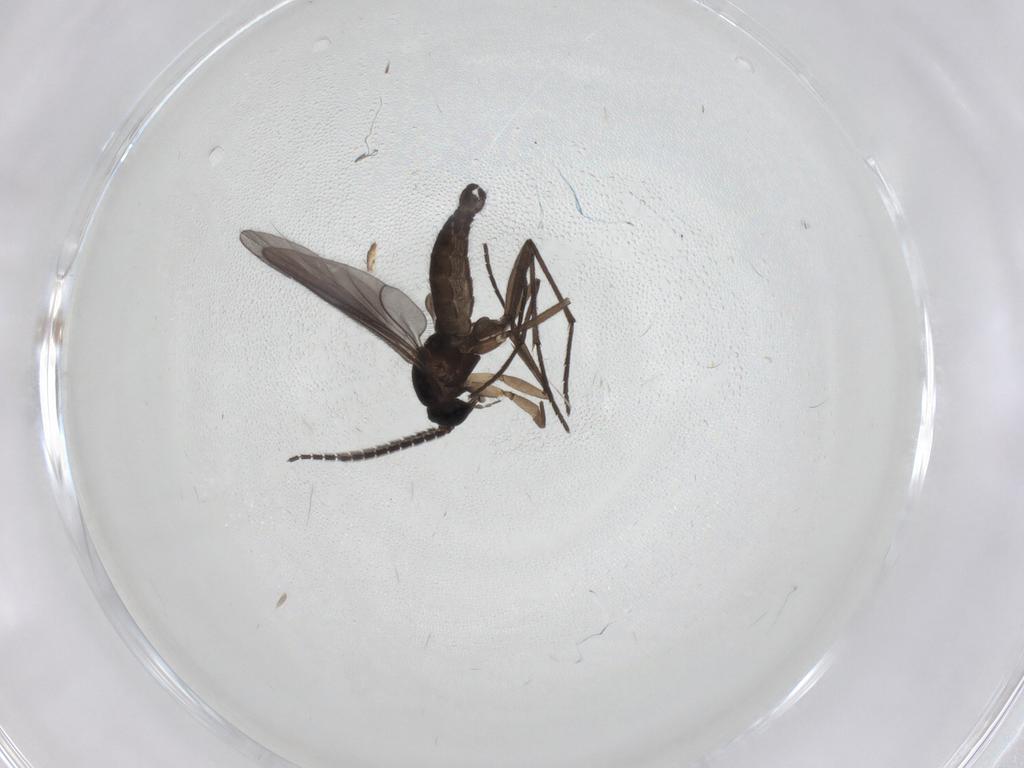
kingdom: Animalia
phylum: Arthropoda
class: Insecta
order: Diptera
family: Sciaridae
